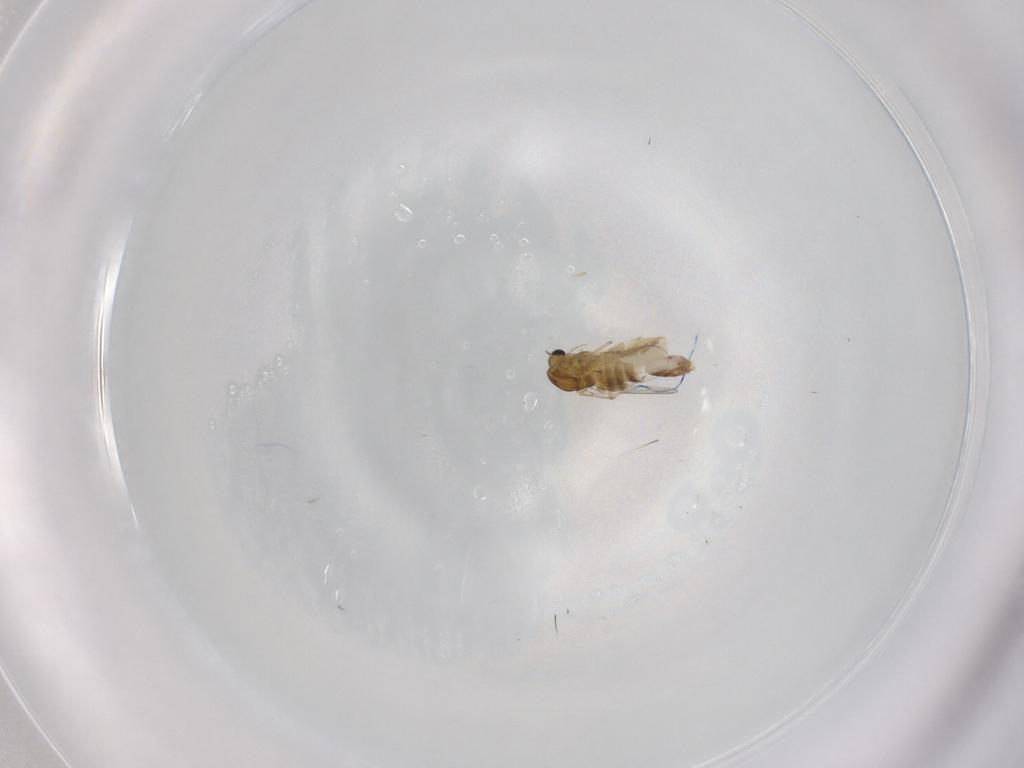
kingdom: Animalia
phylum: Arthropoda
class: Insecta
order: Diptera
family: Chironomidae
